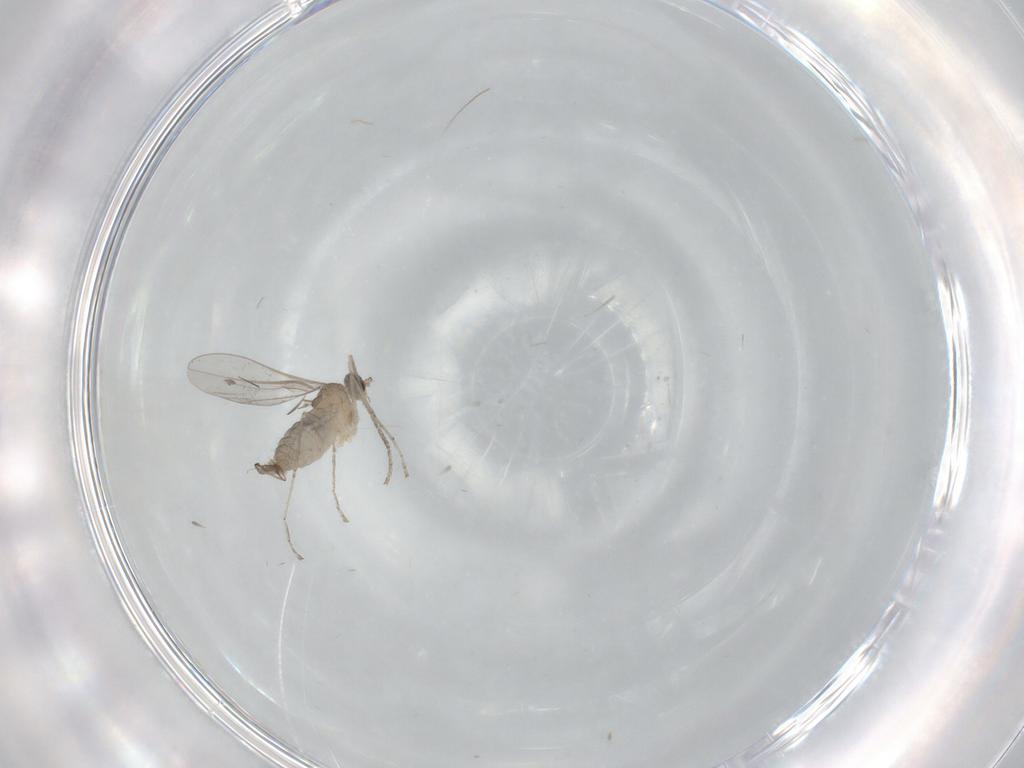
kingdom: Animalia
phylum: Arthropoda
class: Insecta
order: Diptera
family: Cecidomyiidae
